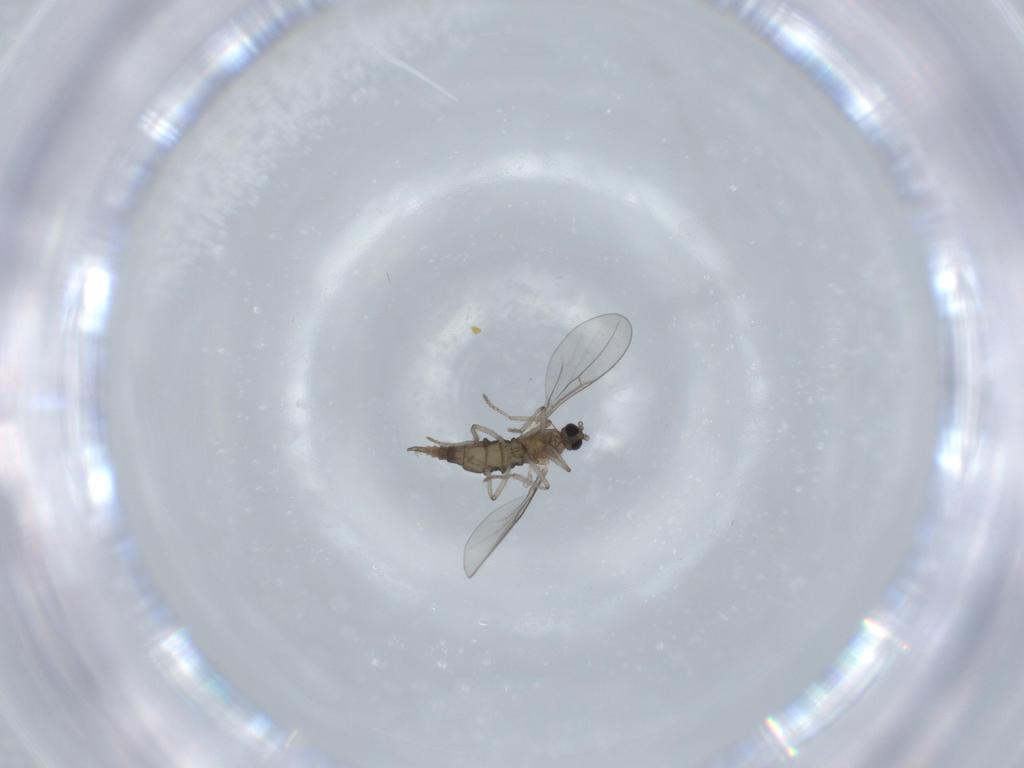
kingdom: Animalia
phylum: Arthropoda
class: Insecta
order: Diptera
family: Cecidomyiidae
